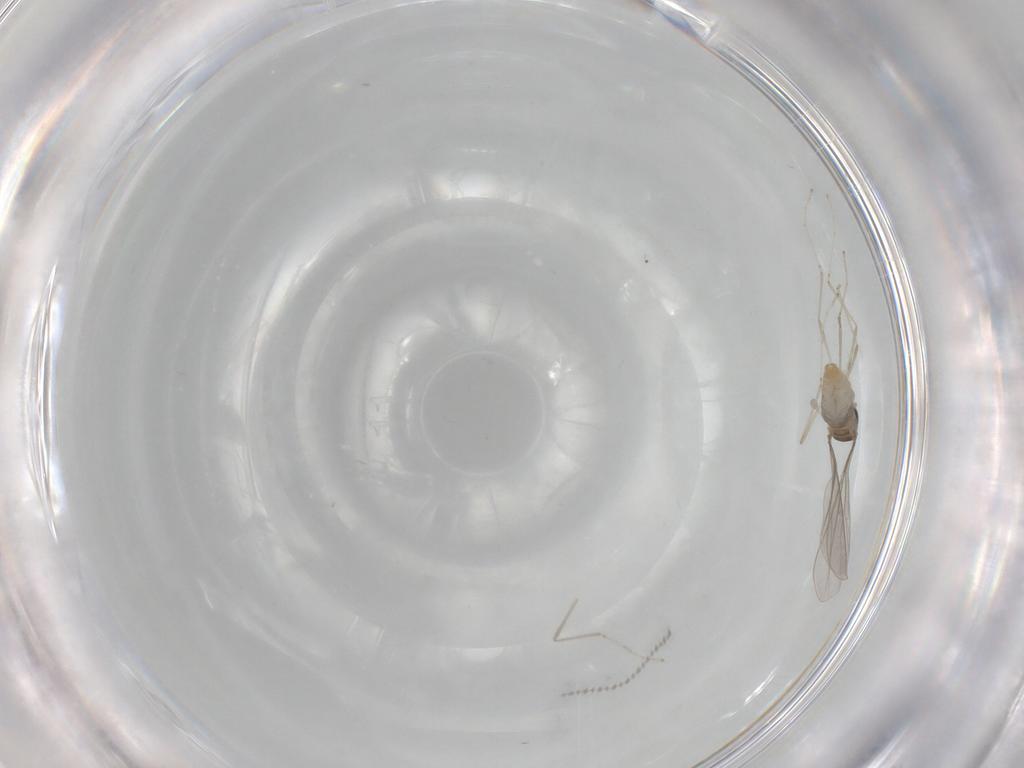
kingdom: Animalia
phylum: Arthropoda
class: Insecta
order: Diptera
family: Cecidomyiidae
